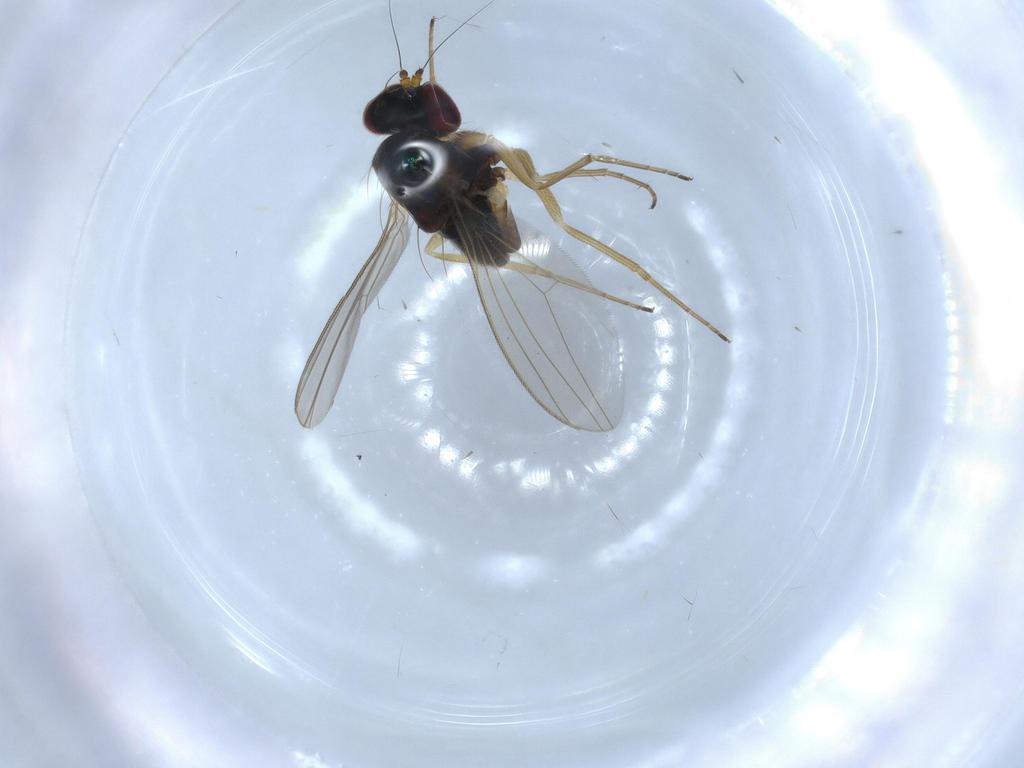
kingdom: Animalia
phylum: Arthropoda
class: Insecta
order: Diptera
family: Dolichopodidae
